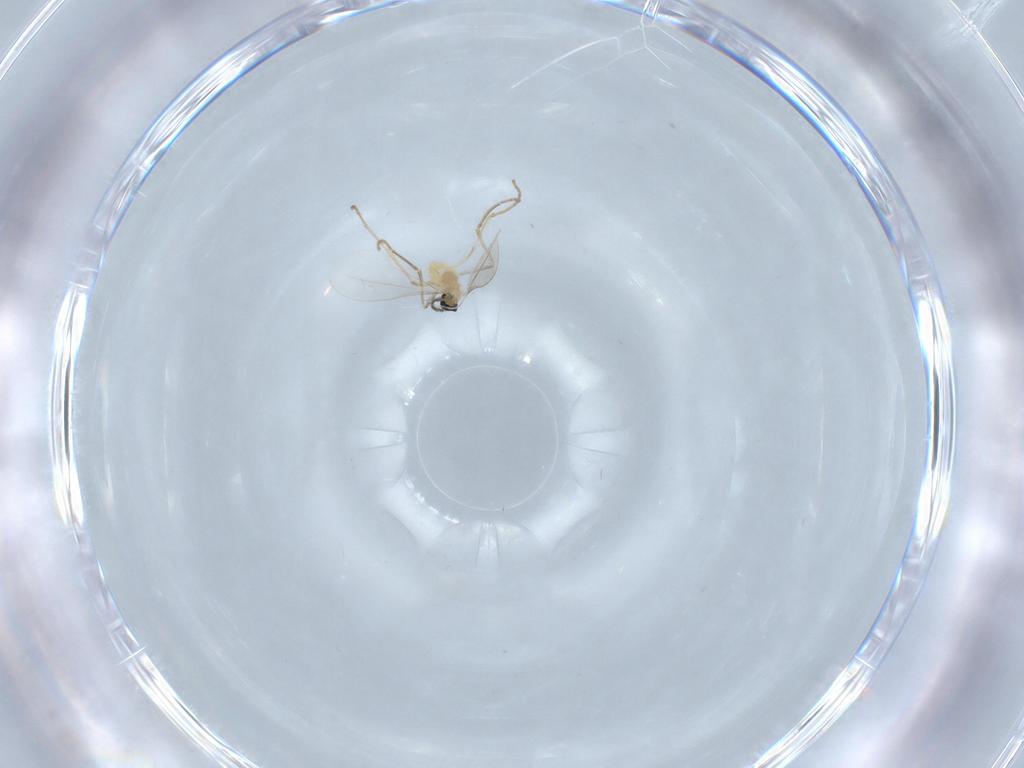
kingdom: Animalia
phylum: Arthropoda
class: Insecta
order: Diptera
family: Cecidomyiidae
